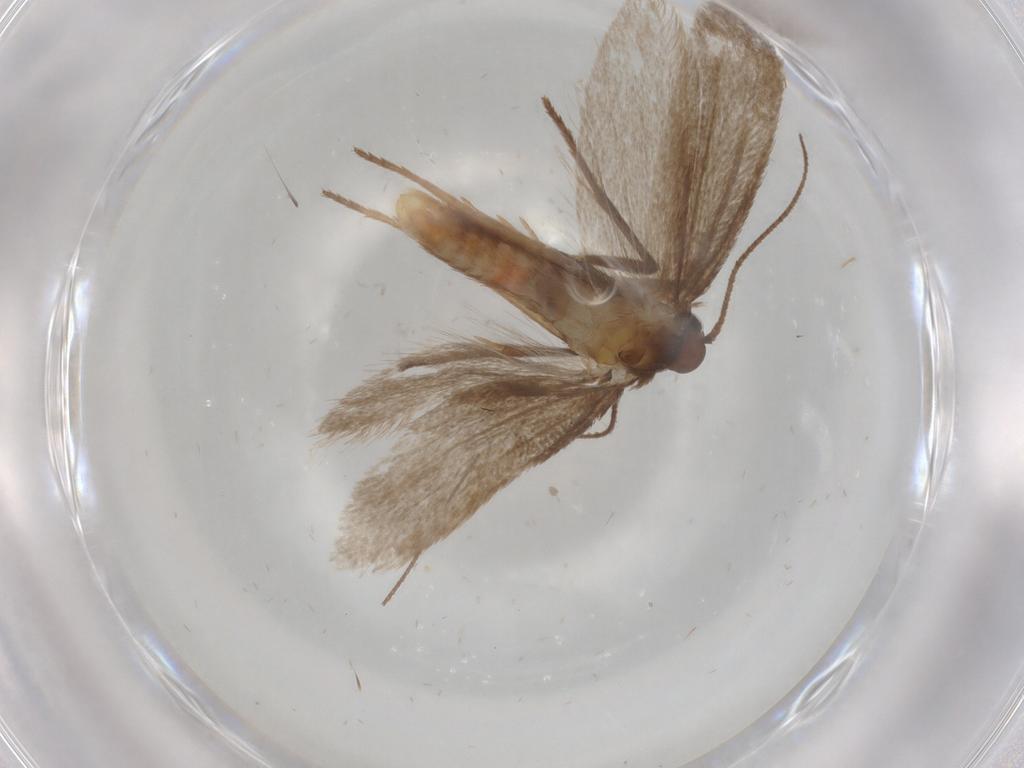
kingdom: Animalia
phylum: Arthropoda
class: Insecta
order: Lepidoptera
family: Limacodidae
